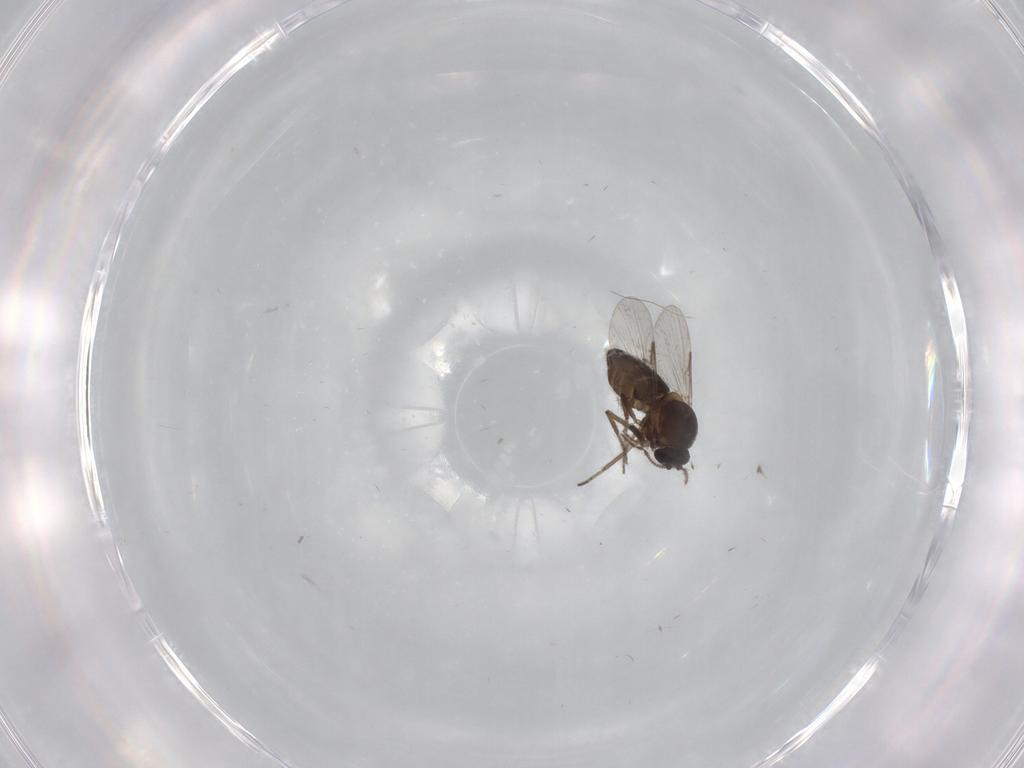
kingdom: Animalia
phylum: Arthropoda
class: Insecta
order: Diptera
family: Ceratopogonidae
